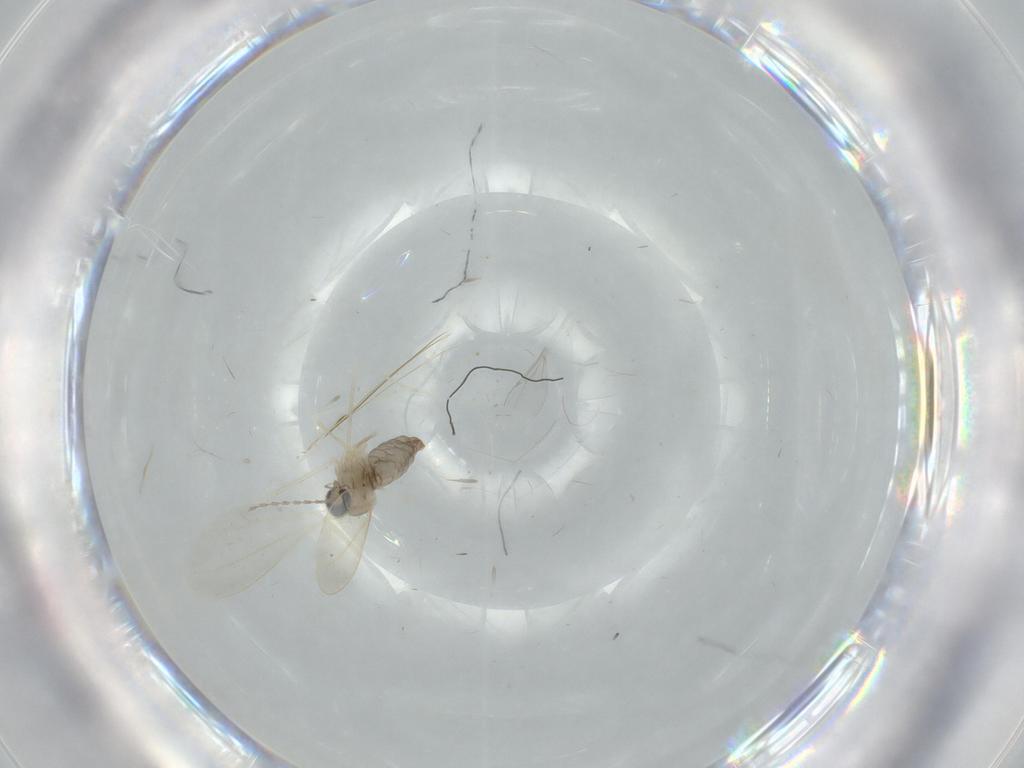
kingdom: Animalia
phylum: Arthropoda
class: Insecta
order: Diptera
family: Cecidomyiidae
